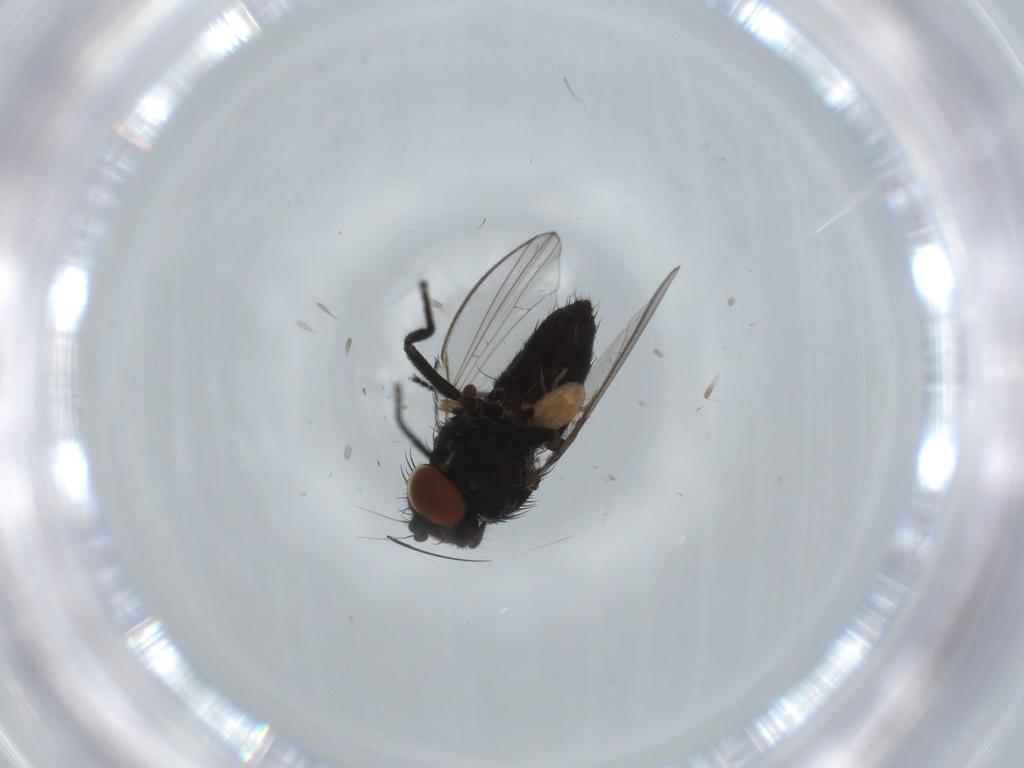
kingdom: Animalia
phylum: Arthropoda
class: Insecta
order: Diptera
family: Milichiidae
